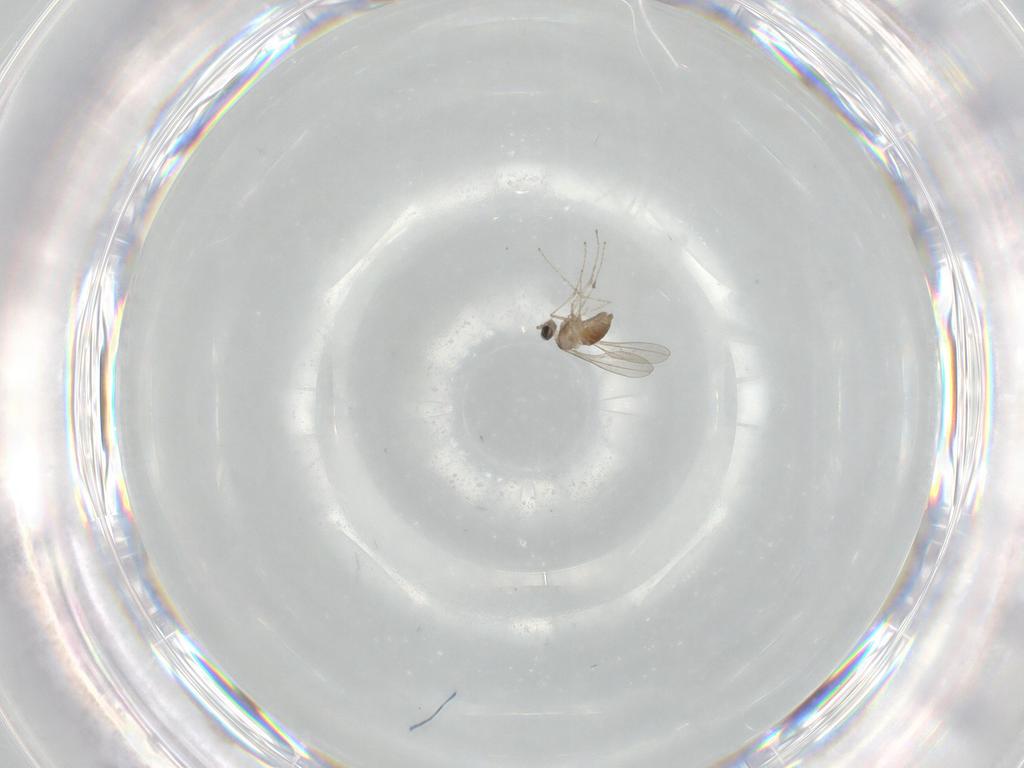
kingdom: Animalia
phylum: Arthropoda
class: Insecta
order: Diptera
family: Cecidomyiidae
